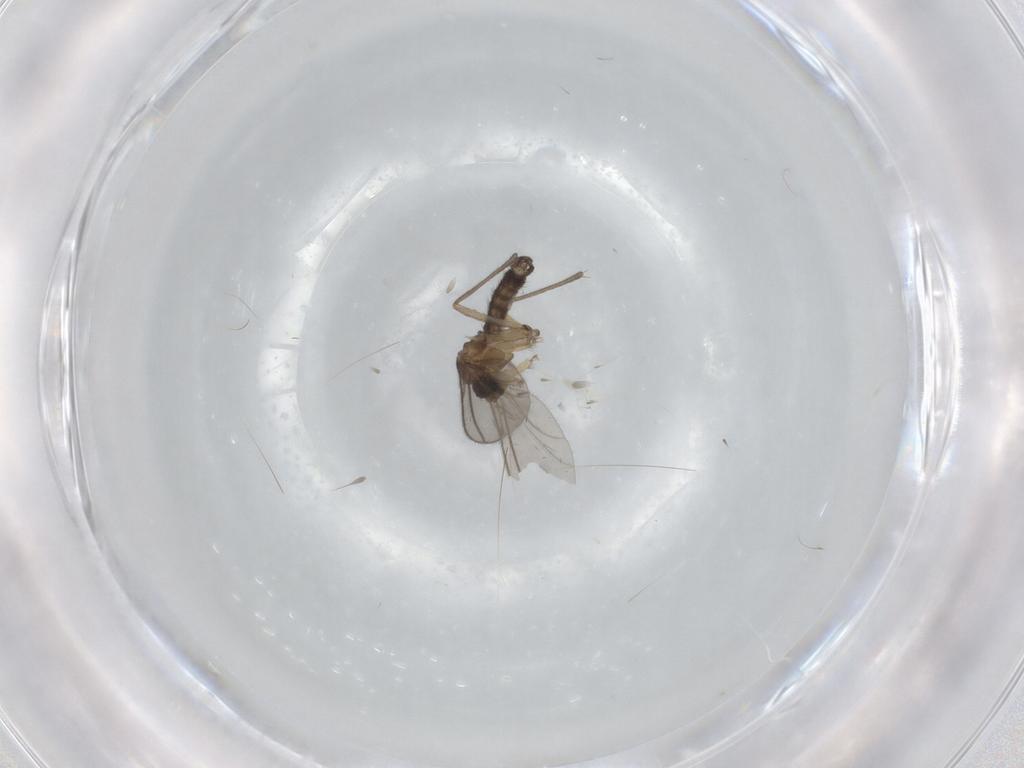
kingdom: Animalia
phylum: Arthropoda
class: Insecta
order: Diptera
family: Sciaridae
